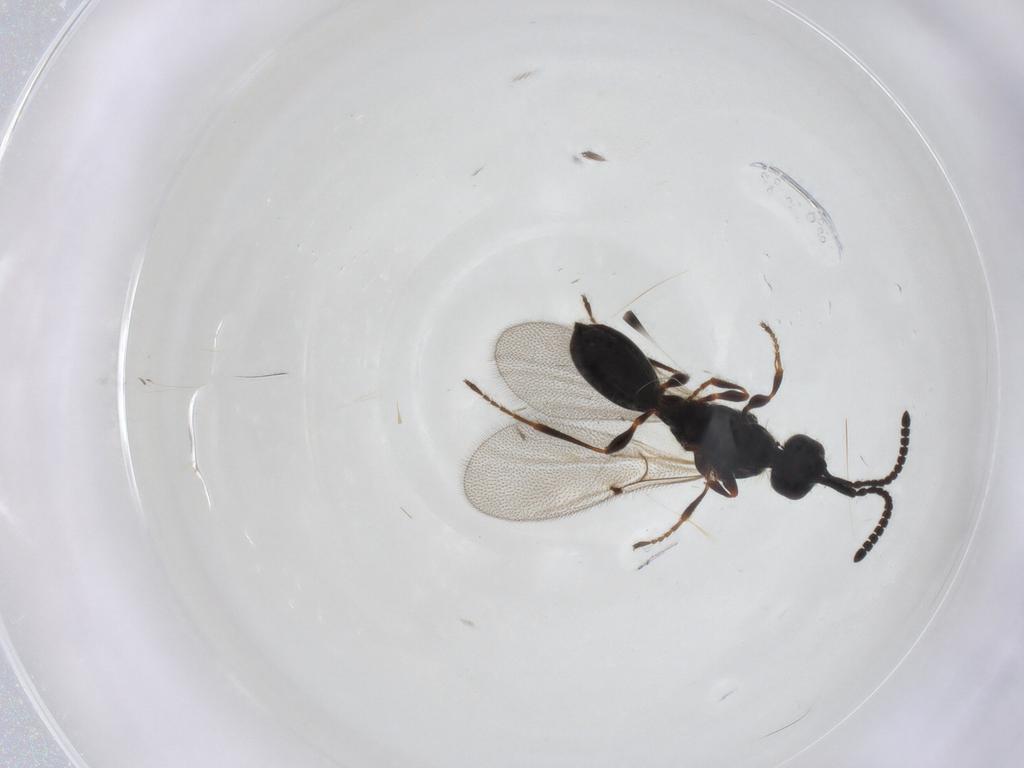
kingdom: Animalia
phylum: Arthropoda
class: Insecta
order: Hymenoptera
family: Diapriidae
